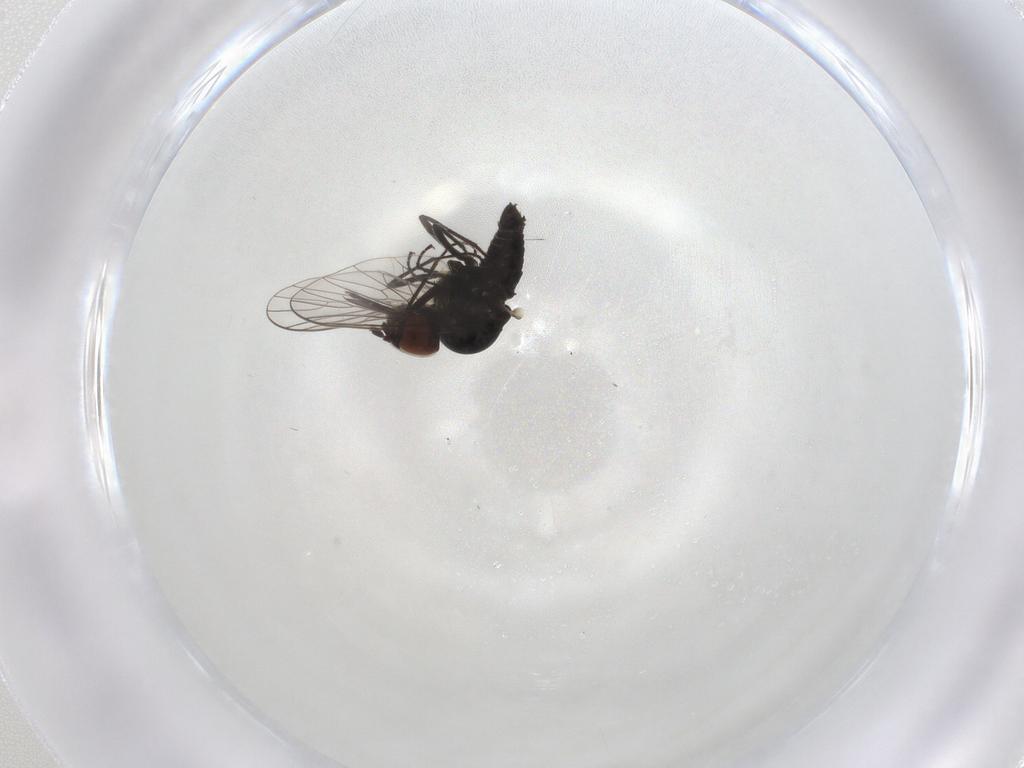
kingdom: Animalia
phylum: Arthropoda
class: Insecta
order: Diptera
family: Bombyliidae
